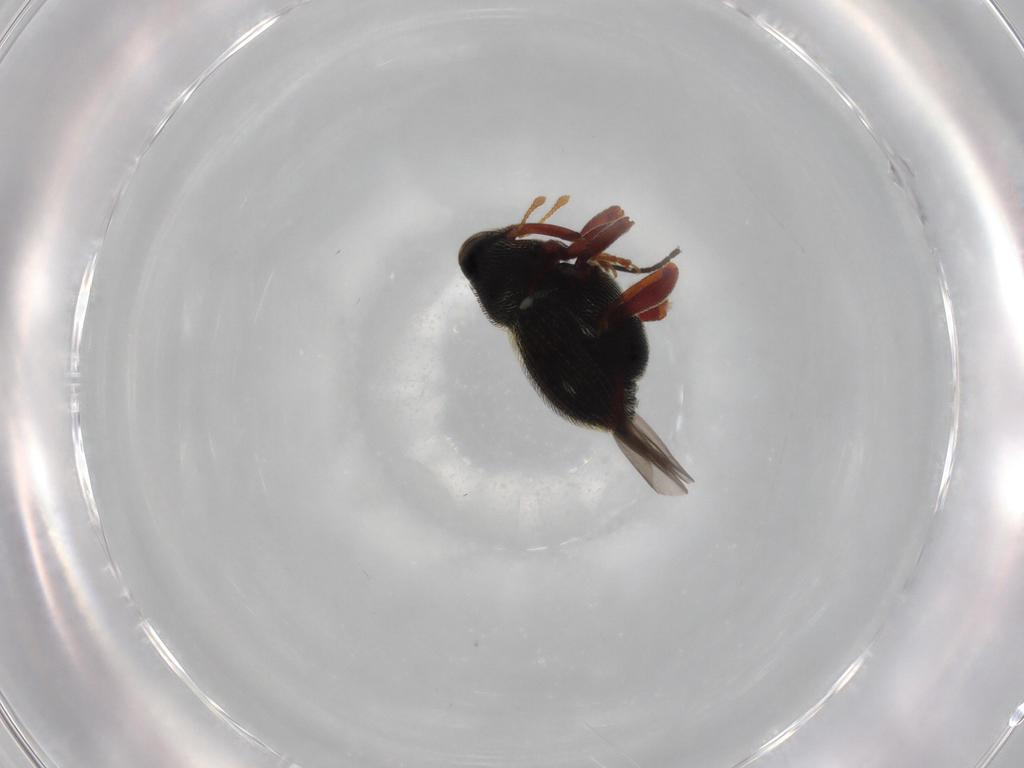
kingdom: Animalia
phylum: Arthropoda
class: Insecta
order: Coleoptera
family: Curculionidae
